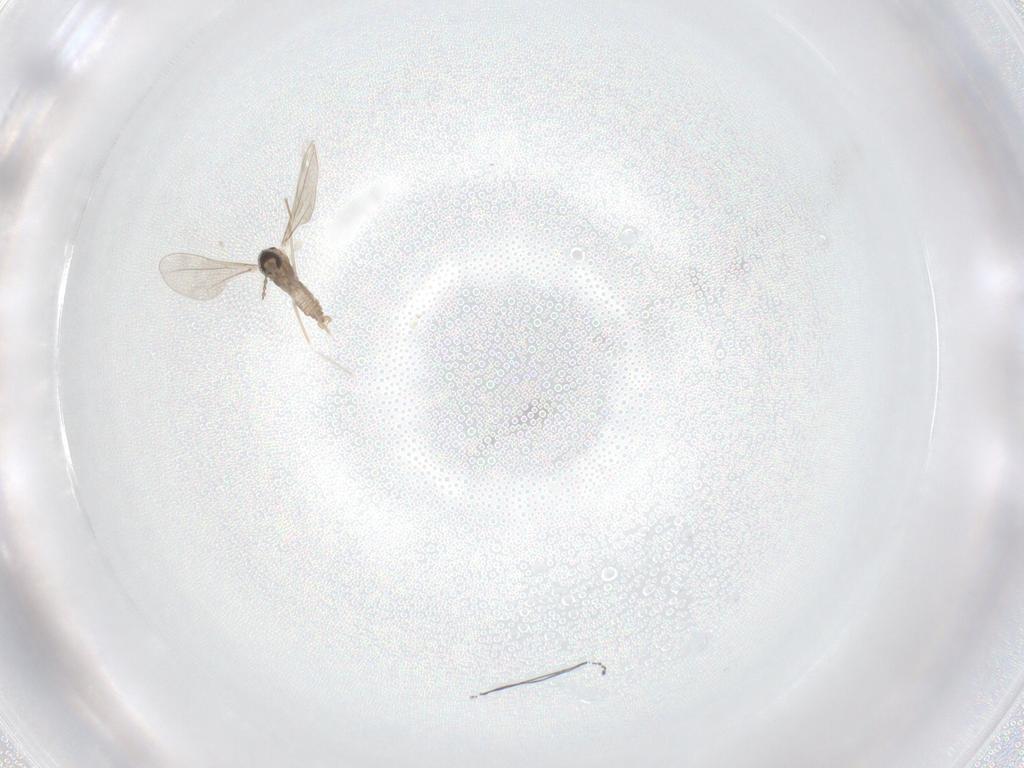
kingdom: Animalia
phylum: Arthropoda
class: Insecta
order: Diptera
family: Cecidomyiidae
